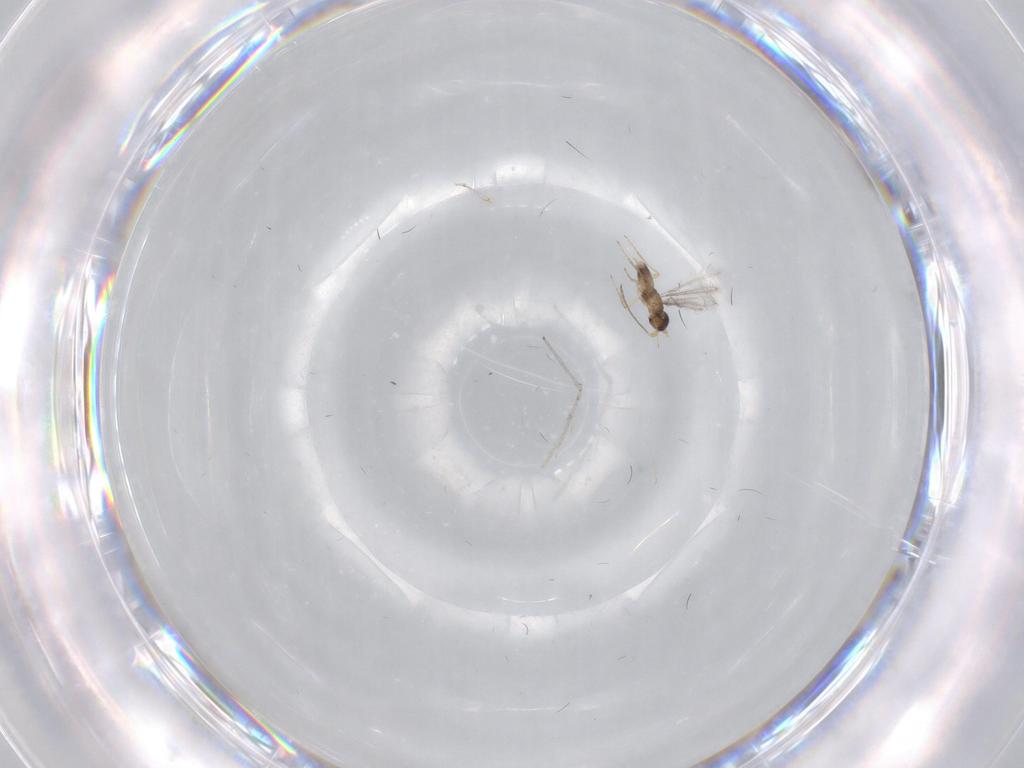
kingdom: Animalia
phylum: Arthropoda
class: Insecta
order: Diptera
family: Cecidomyiidae
